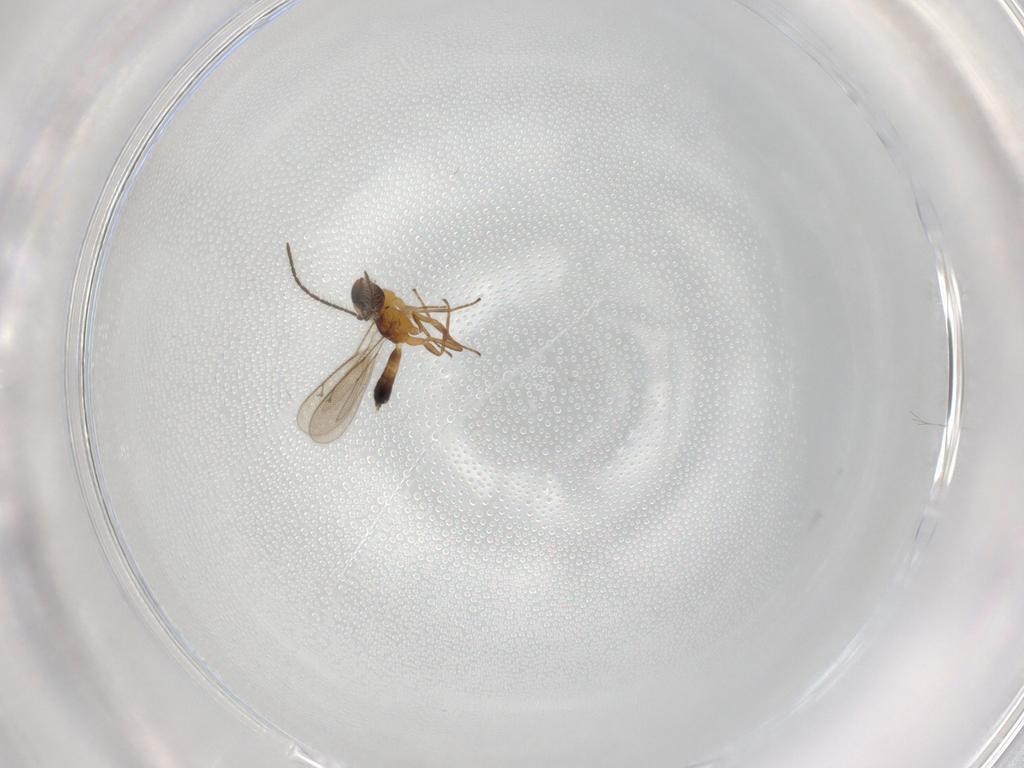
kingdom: Animalia
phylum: Arthropoda
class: Insecta
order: Hymenoptera
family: Eupelmidae
